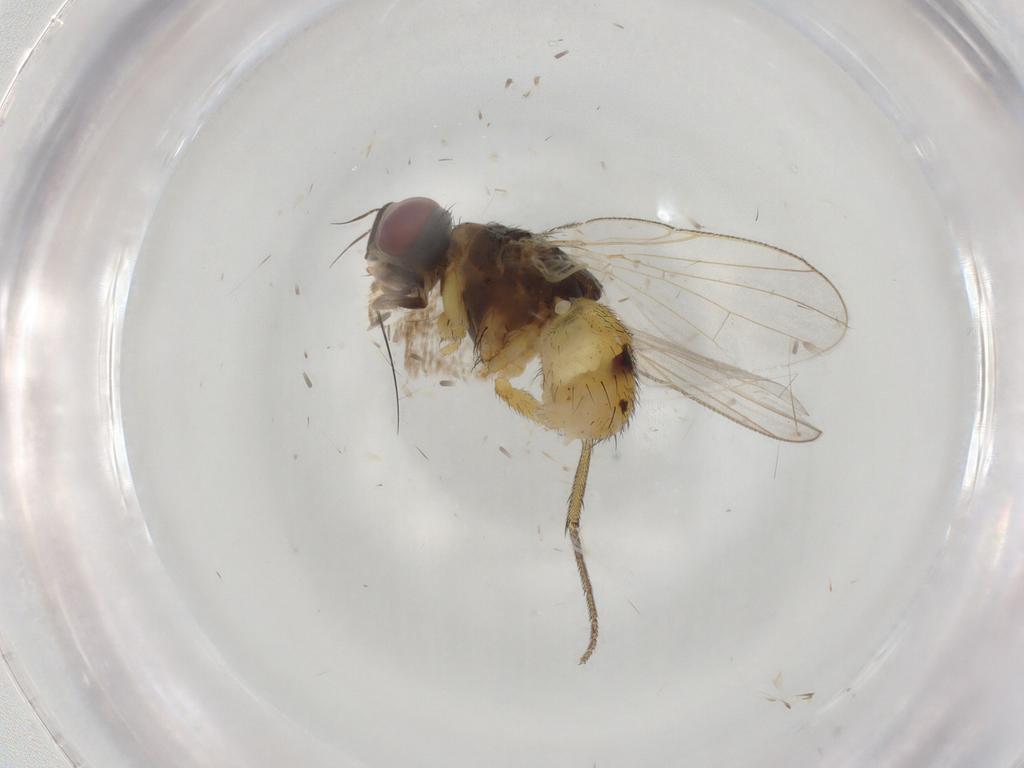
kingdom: Animalia
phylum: Arthropoda
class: Insecta
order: Diptera
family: Muscidae
